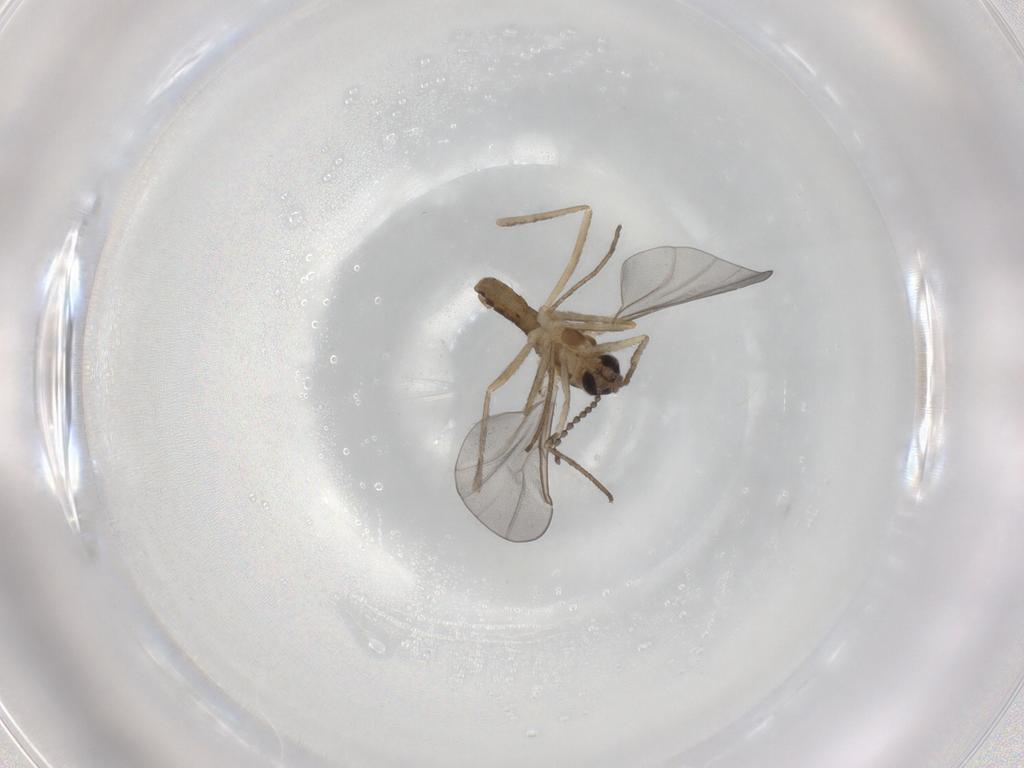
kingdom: Animalia
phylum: Arthropoda
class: Insecta
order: Diptera
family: Cecidomyiidae
